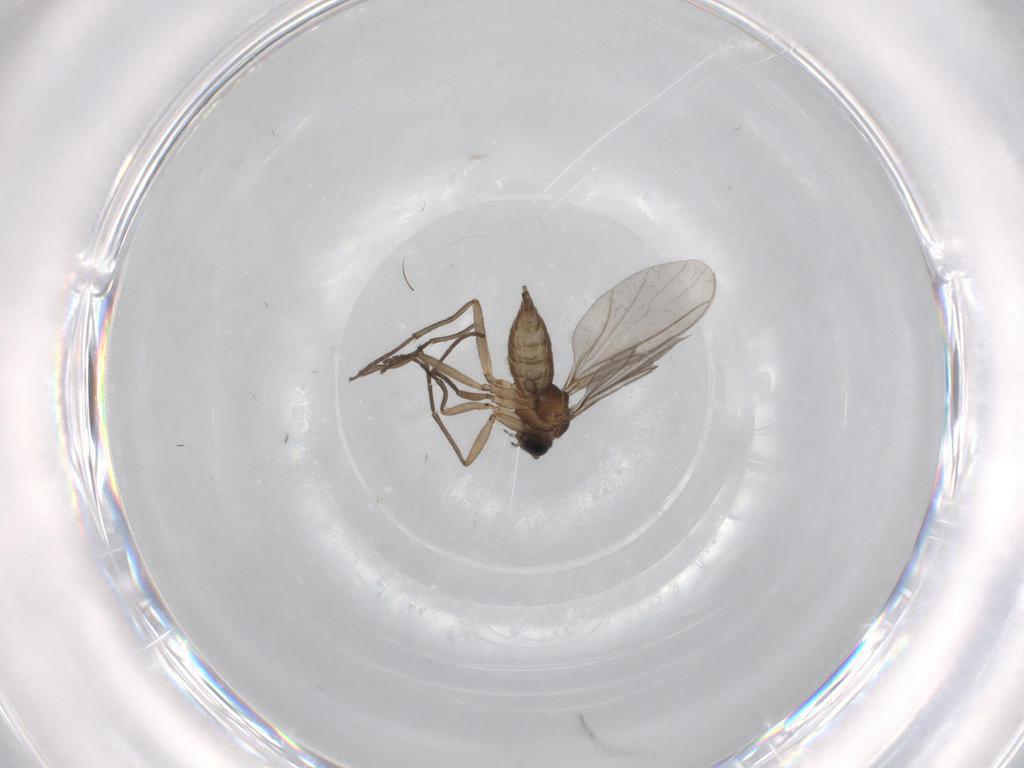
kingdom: Animalia
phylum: Arthropoda
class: Insecta
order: Diptera
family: Sciaridae
